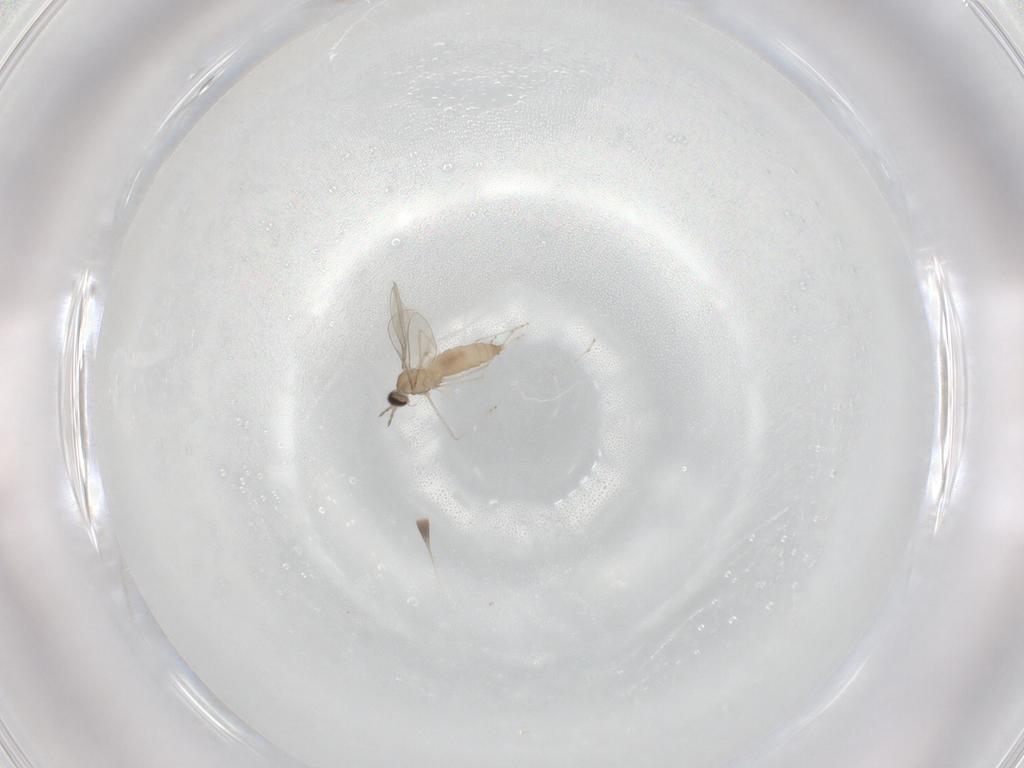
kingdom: Animalia
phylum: Arthropoda
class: Insecta
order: Diptera
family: Cecidomyiidae
